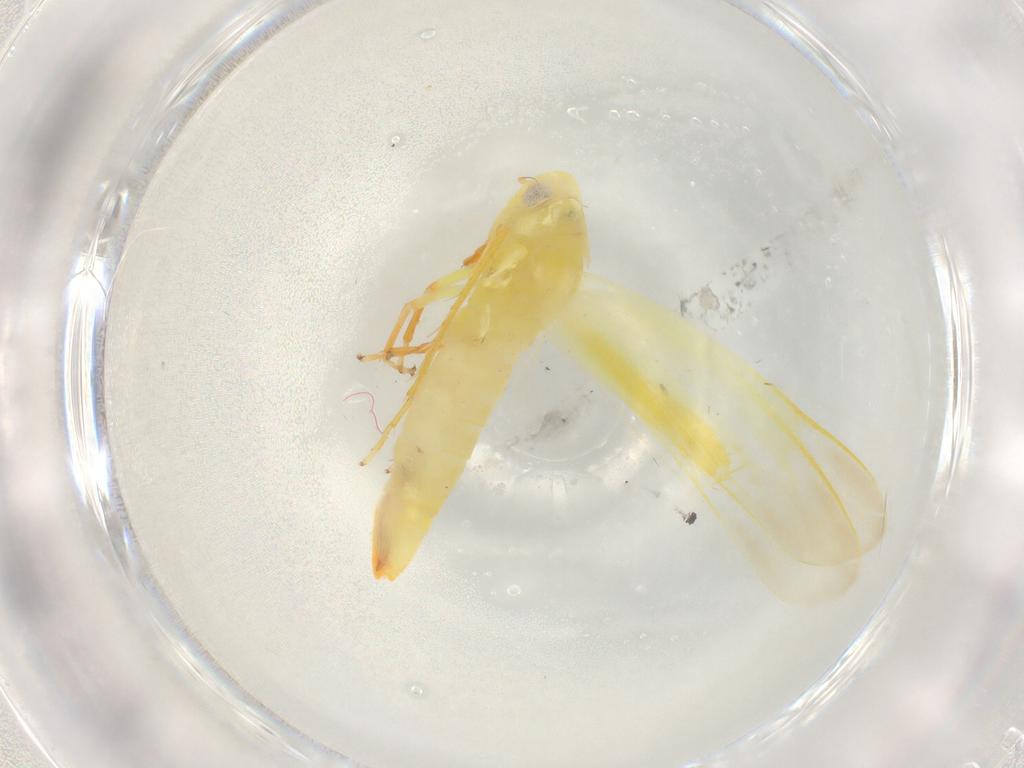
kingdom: Animalia
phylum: Arthropoda
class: Insecta
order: Hemiptera
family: Cicadellidae
